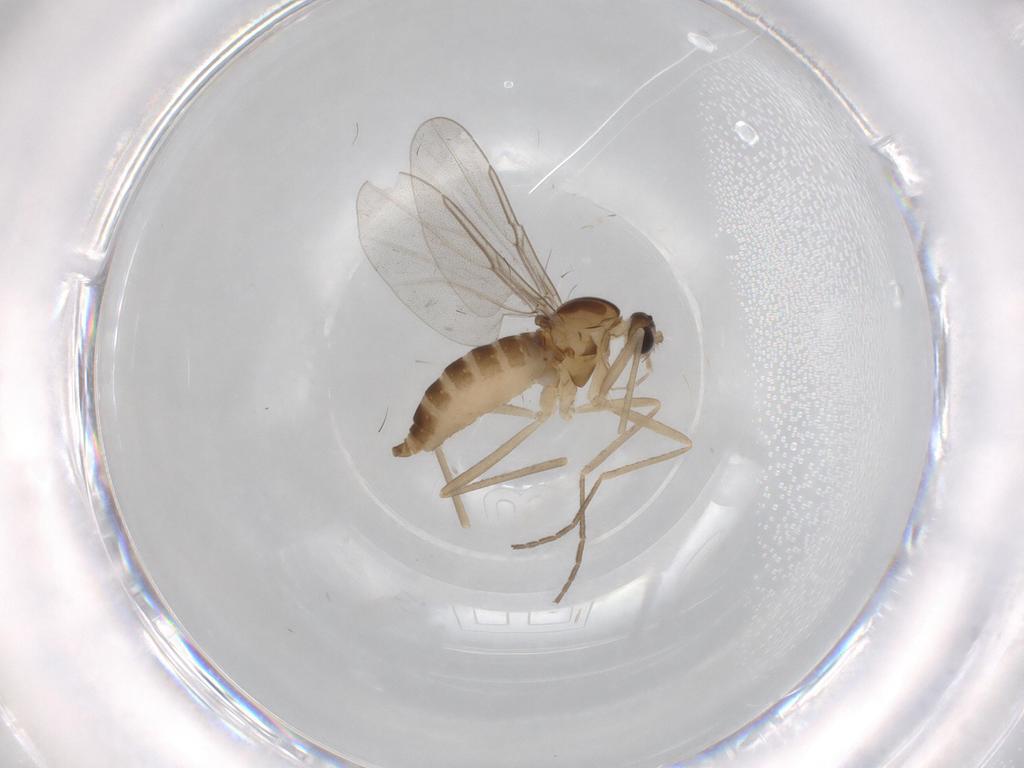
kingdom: Animalia
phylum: Arthropoda
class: Insecta
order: Diptera
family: Cecidomyiidae
